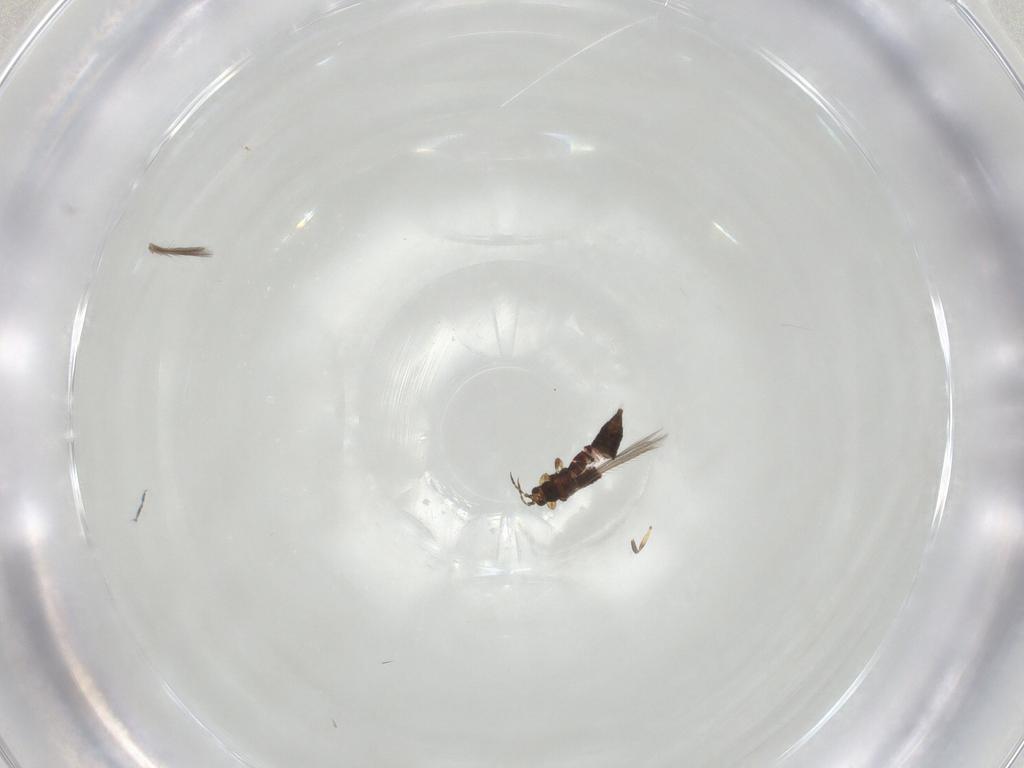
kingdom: Animalia
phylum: Arthropoda
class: Insecta
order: Thysanoptera
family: Thripidae
